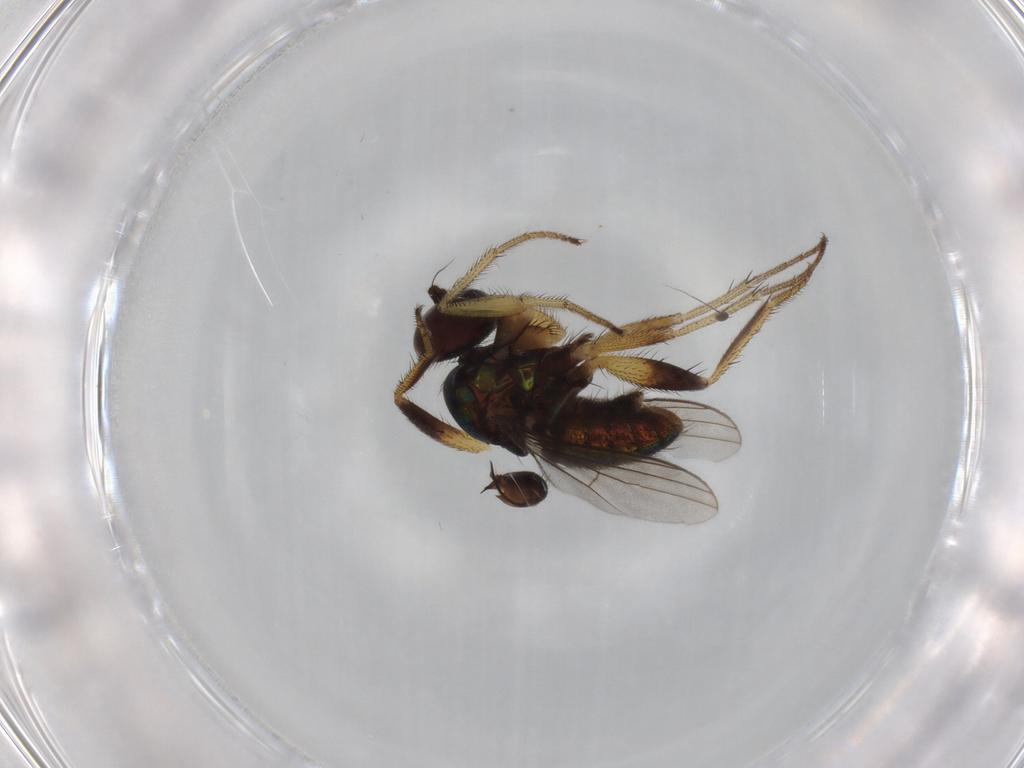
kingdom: Animalia
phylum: Arthropoda
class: Insecta
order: Diptera
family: Dolichopodidae
